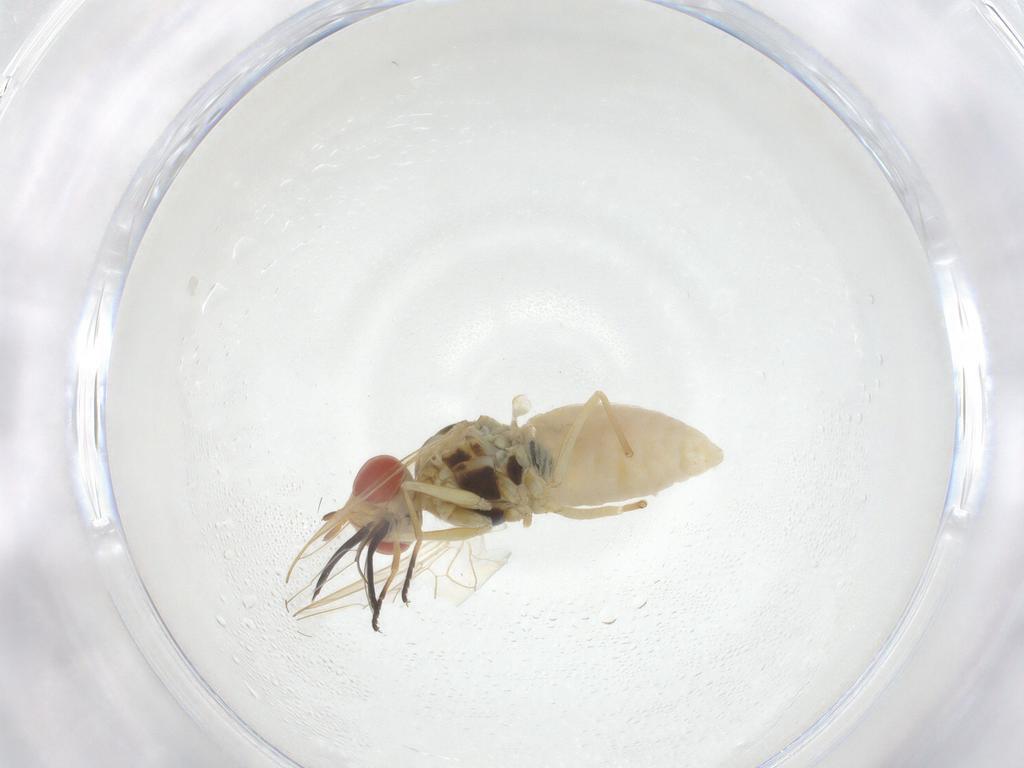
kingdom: Animalia
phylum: Arthropoda
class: Insecta
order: Diptera
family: Bombyliidae
